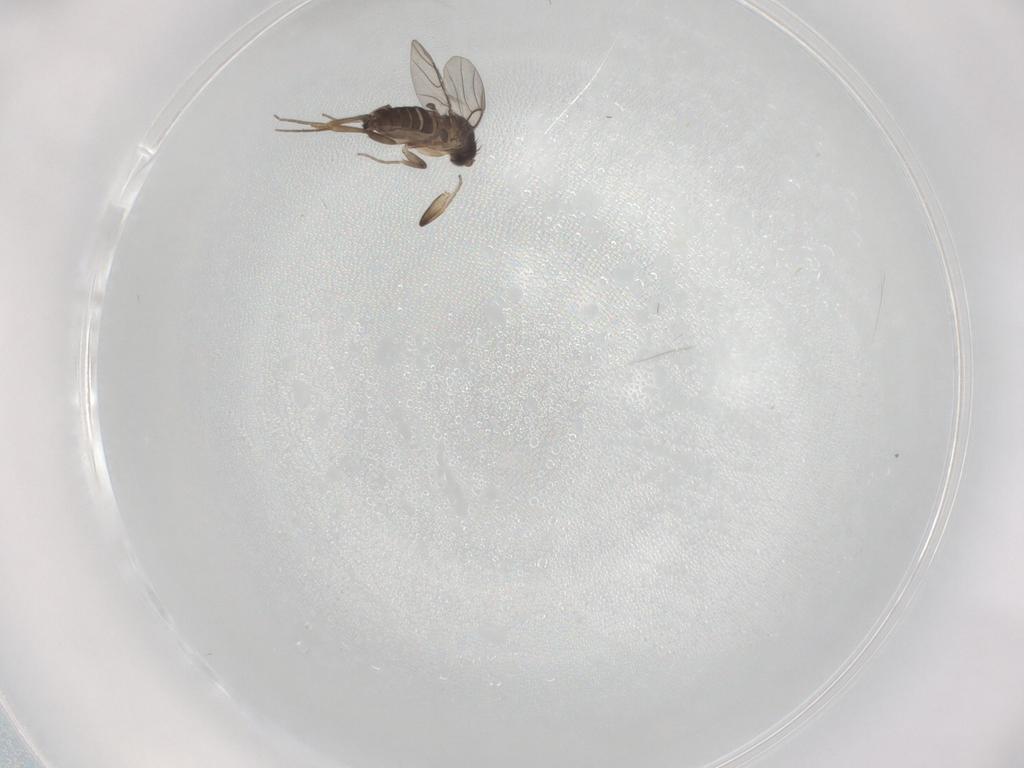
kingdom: Animalia
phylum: Arthropoda
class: Insecta
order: Diptera
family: Phoridae
